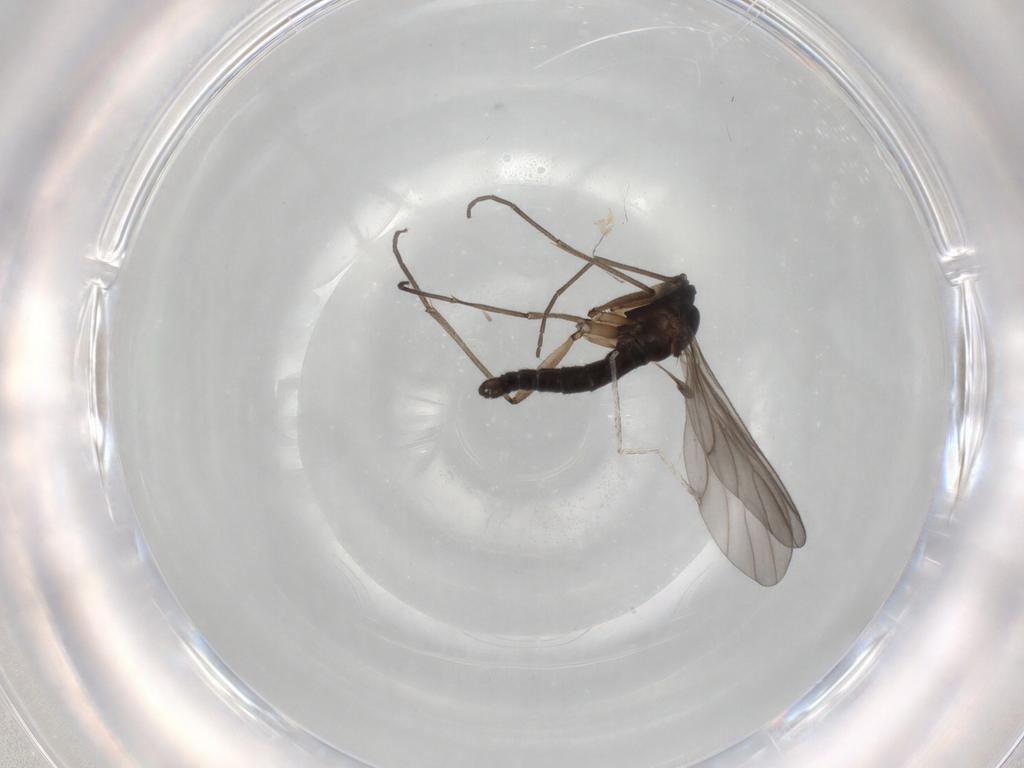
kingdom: Animalia
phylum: Arthropoda
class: Insecta
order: Diptera
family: Sciaridae
